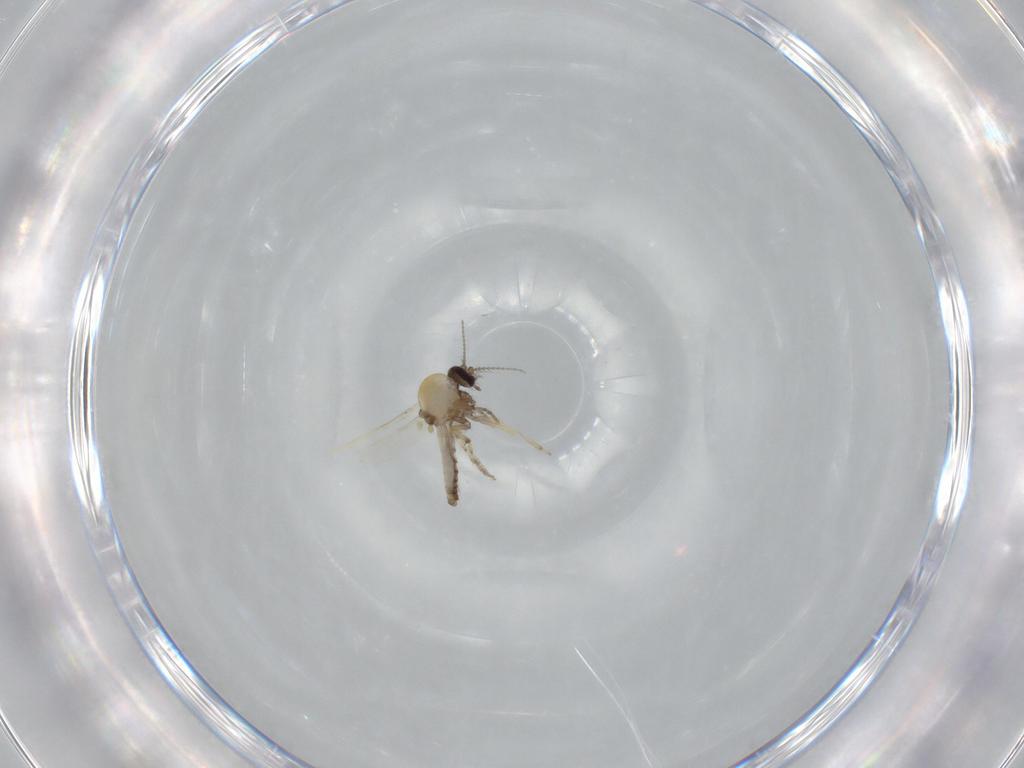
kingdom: Animalia
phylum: Arthropoda
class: Insecta
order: Diptera
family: Ceratopogonidae
